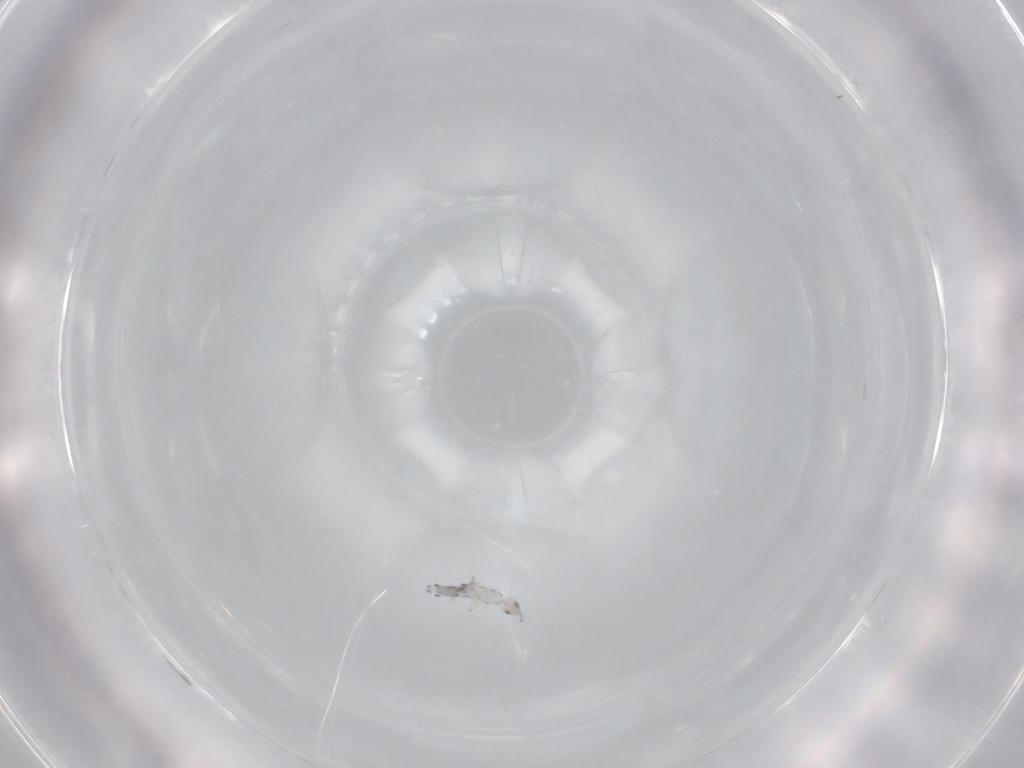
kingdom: Animalia
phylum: Arthropoda
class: Collembola
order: Entomobryomorpha
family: Entomobryidae
